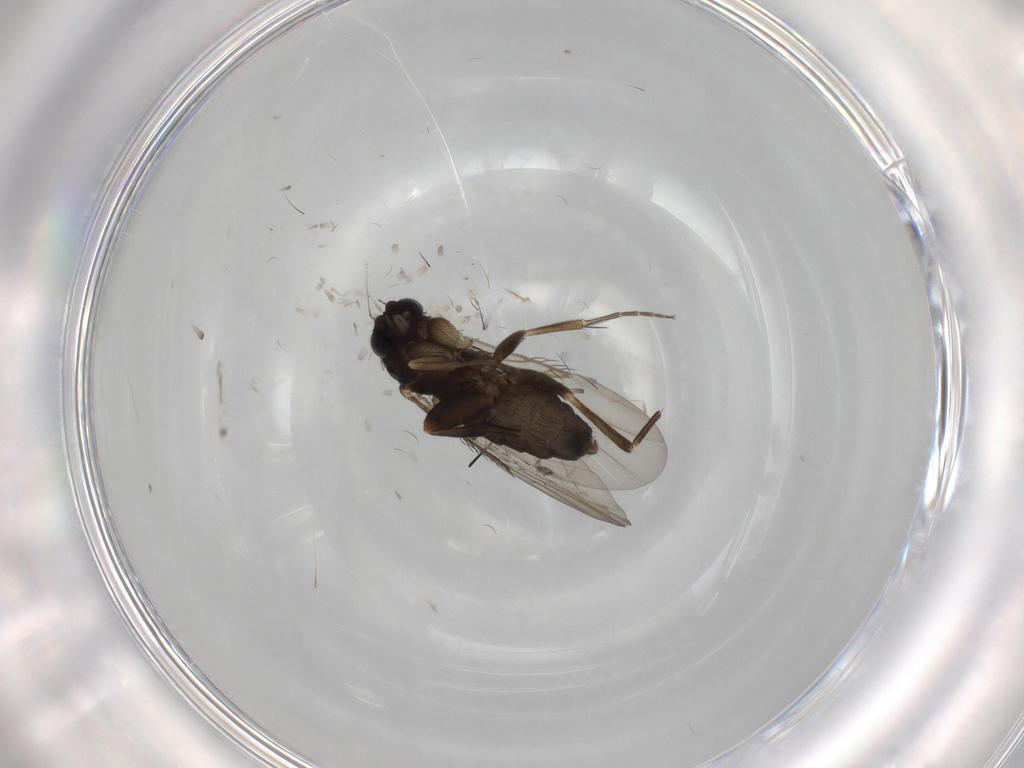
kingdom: Animalia
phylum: Arthropoda
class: Insecta
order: Diptera
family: Phoridae
